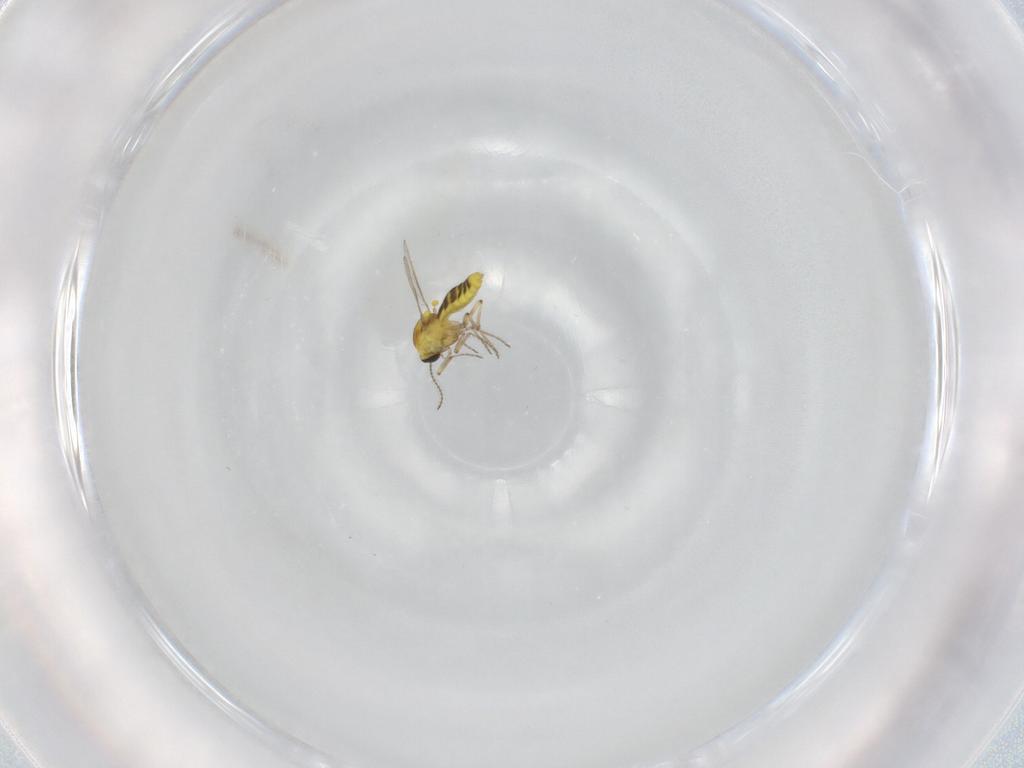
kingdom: Animalia
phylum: Arthropoda
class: Insecta
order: Diptera
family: Ceratopogonidae
